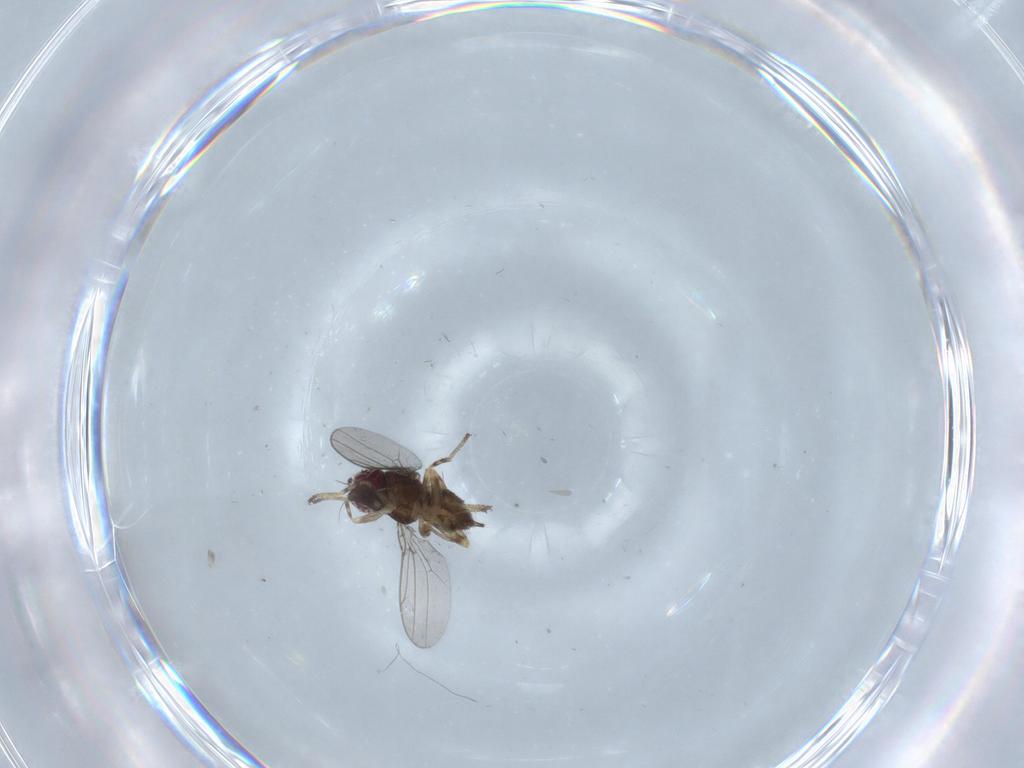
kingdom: Animalia
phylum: Arthropoda
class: Insecta
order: Diptera
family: Chloropidae
